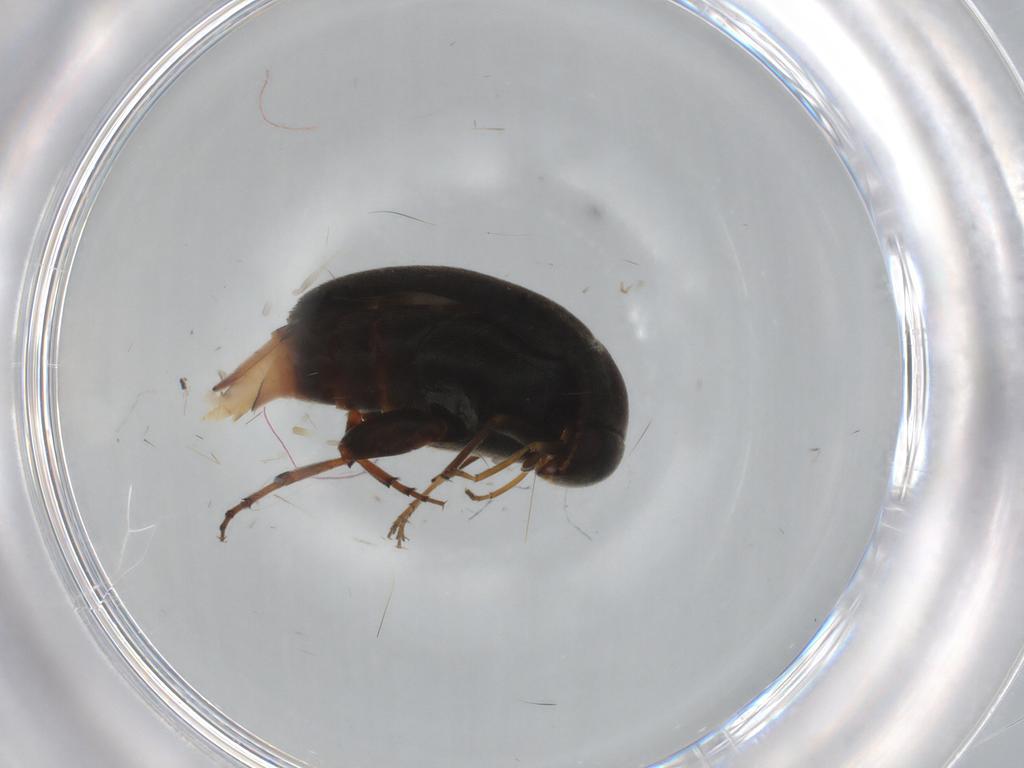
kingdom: Animalia
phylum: Arthropoda
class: Insecta
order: Coleoptera
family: Mordellidae
